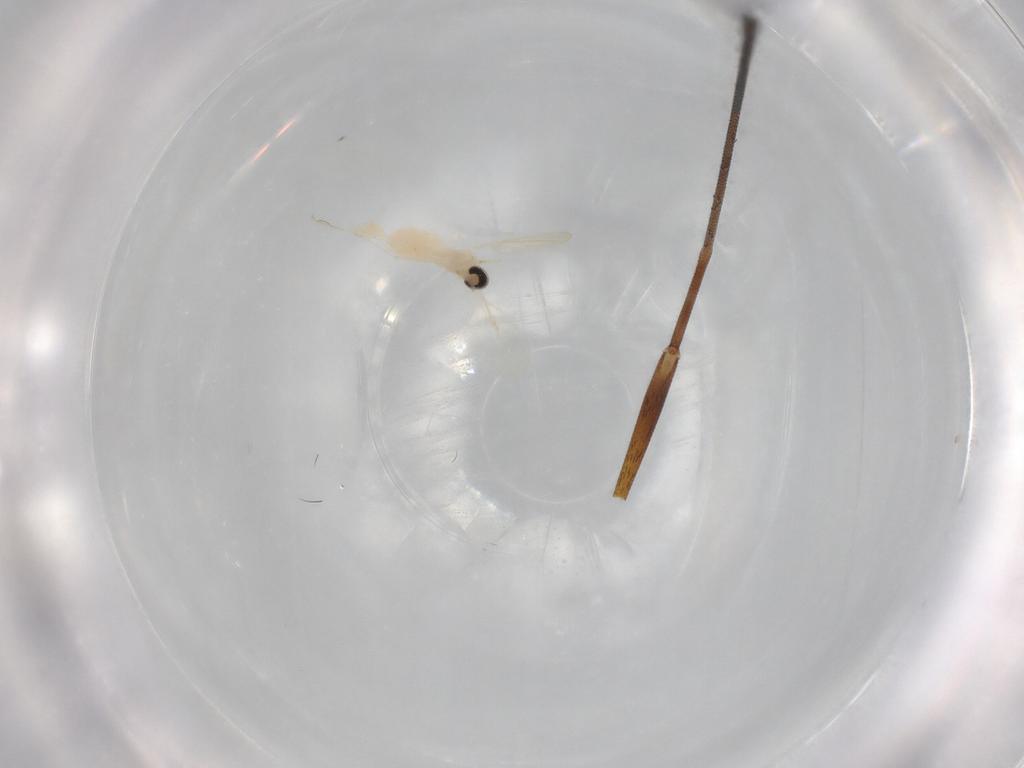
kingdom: Animalia
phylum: Arthropoda
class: Insecta
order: Diptera
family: Limoniidae
